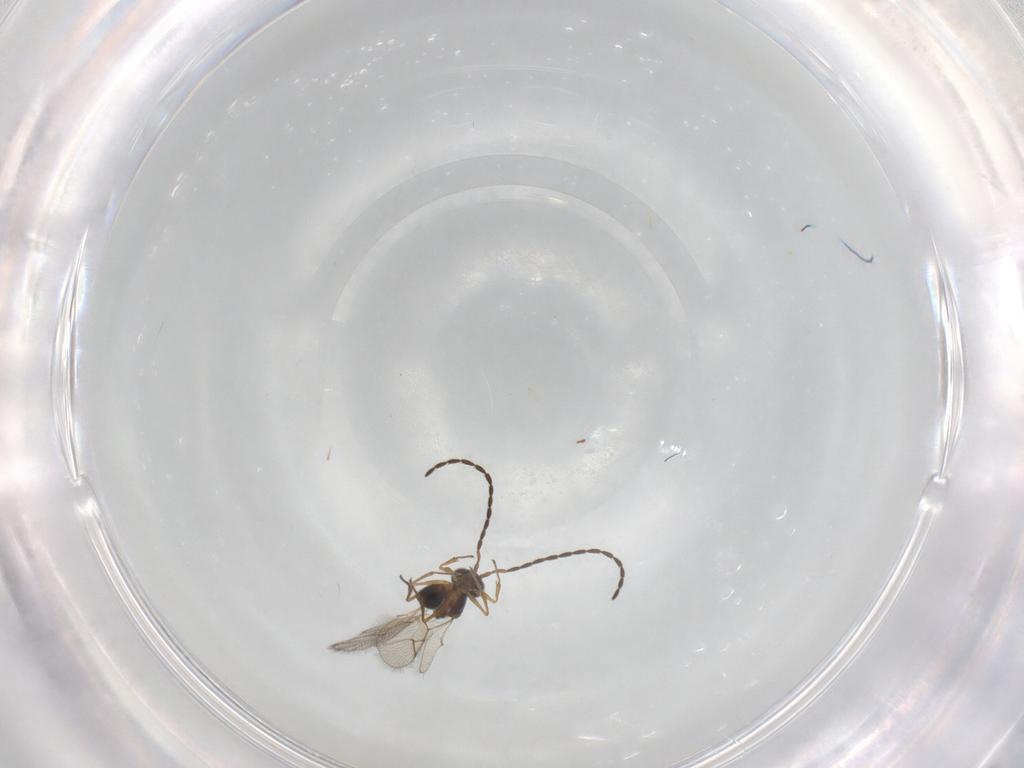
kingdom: Animalia
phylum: Arthropoda
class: Insecta
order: Hymenoptera
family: Figitidae
